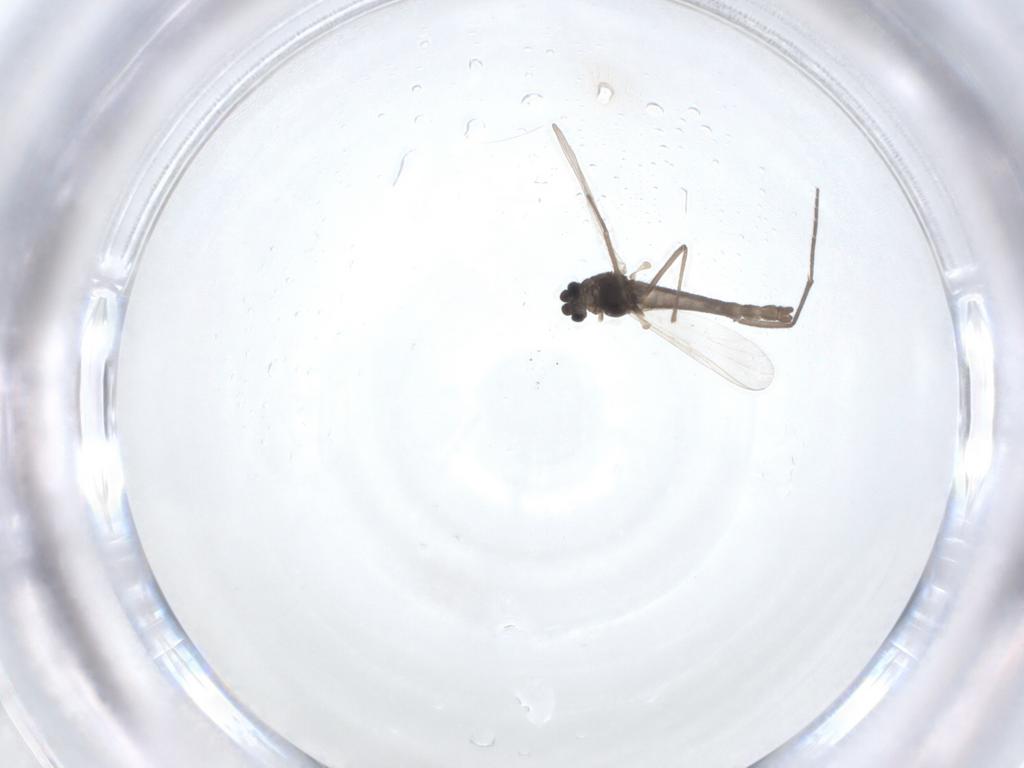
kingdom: Animalia
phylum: Arthropoda
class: Insecta
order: Diptera
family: Chironomidae
